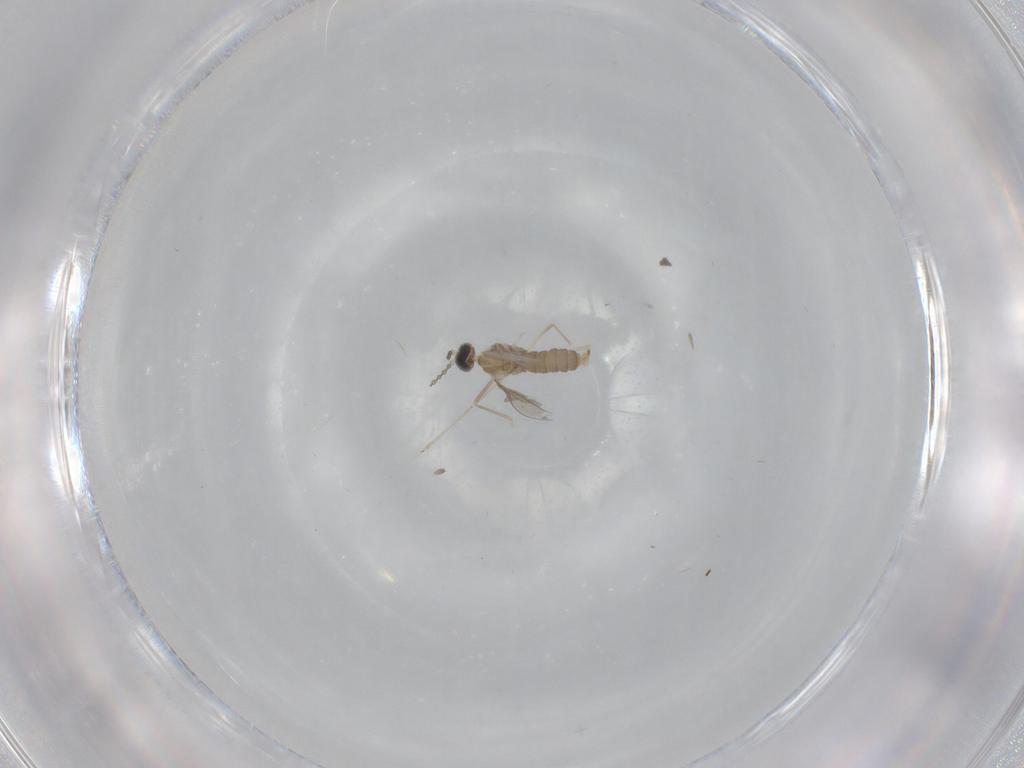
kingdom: Animalia
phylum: Arthropoda
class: Insecta
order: Diptera
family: Cecidomyiidae
